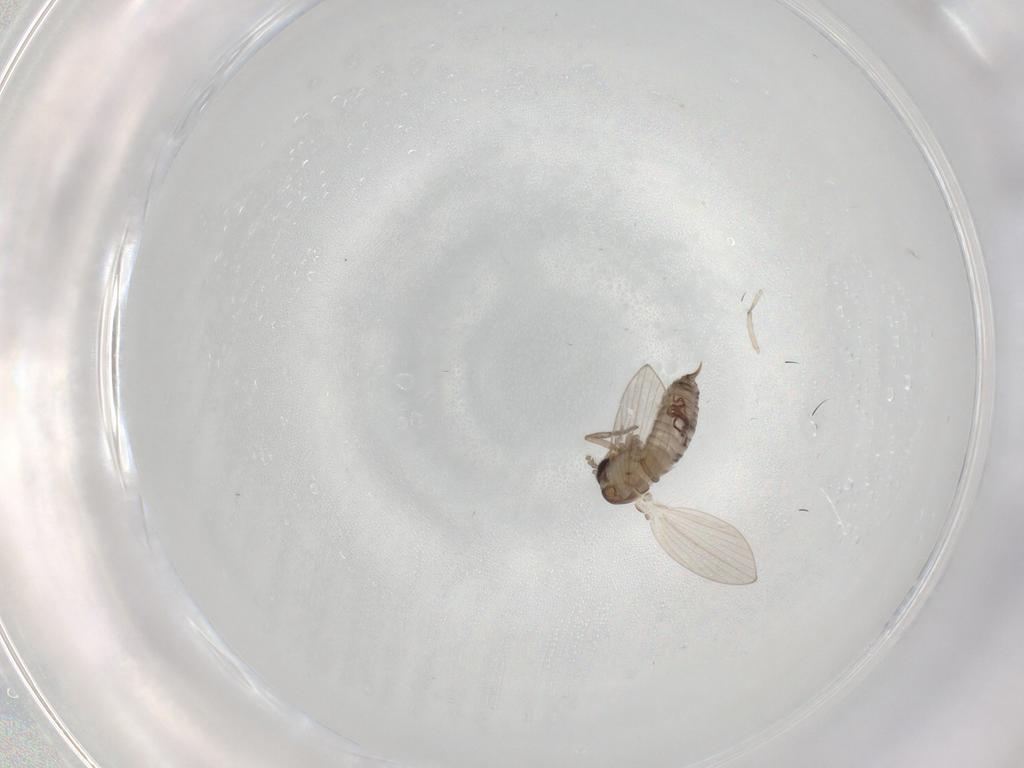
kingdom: Animalia
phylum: Arthropoda
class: Insecta
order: Diptera
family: Psychodidae
